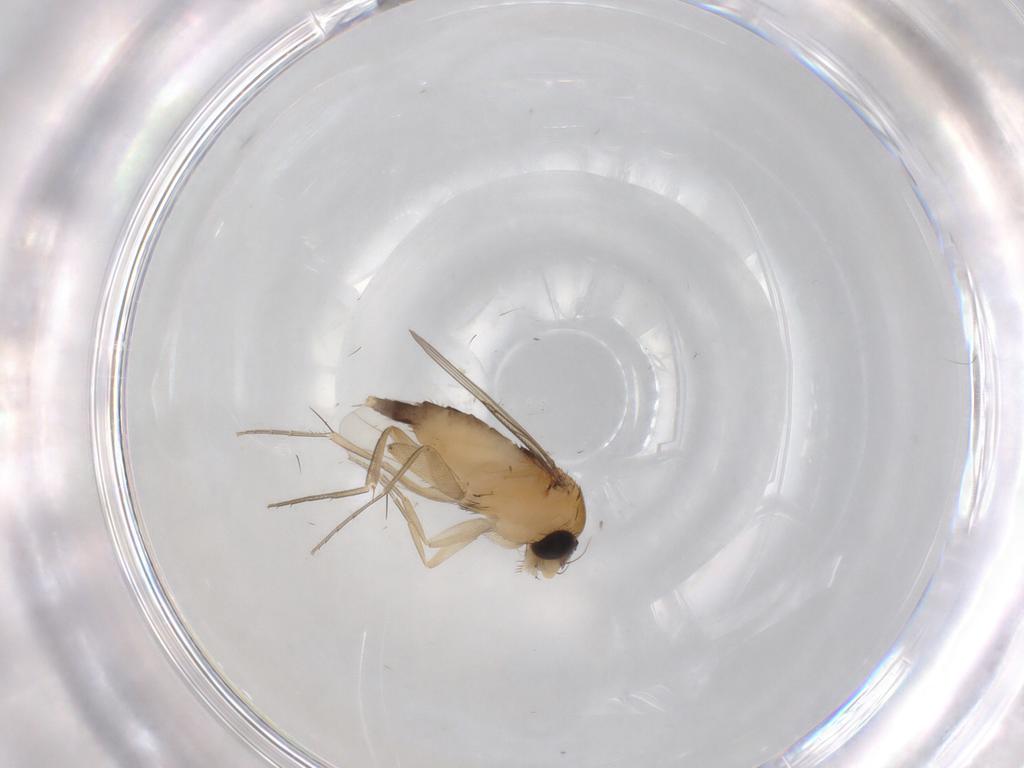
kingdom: Animalia
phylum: Arthropoda
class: Insecta
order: Diptera
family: Phoridae
